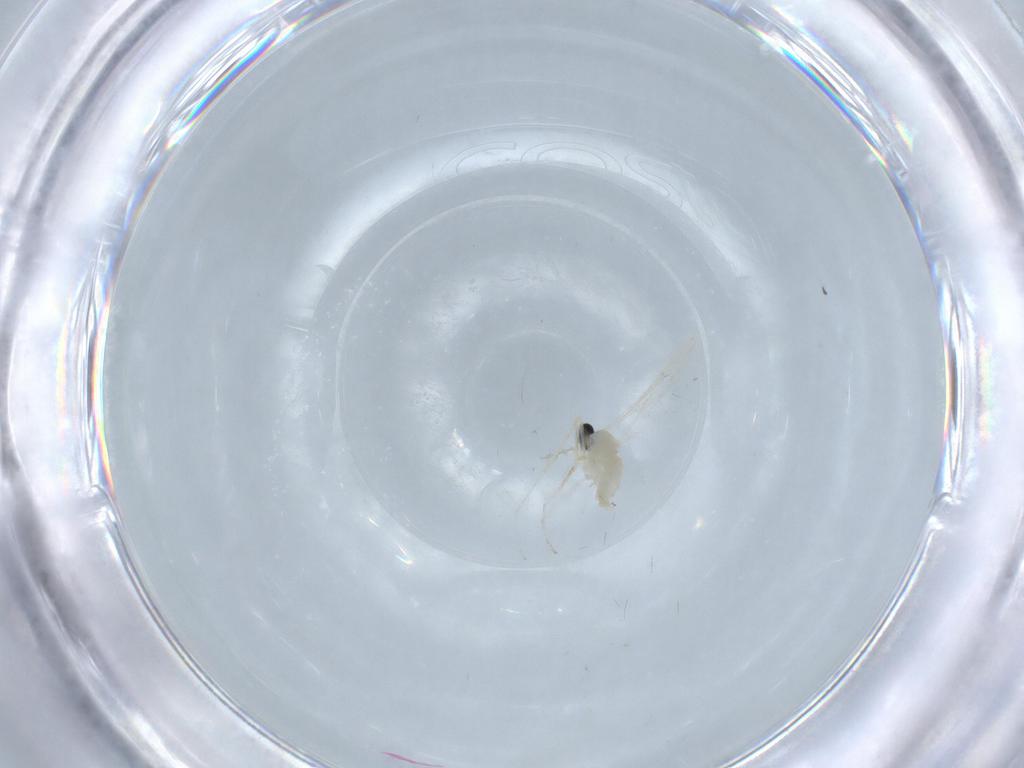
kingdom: Animalia
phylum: Arthropoda
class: Insecta
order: Diptera
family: Cecidomyiidae
